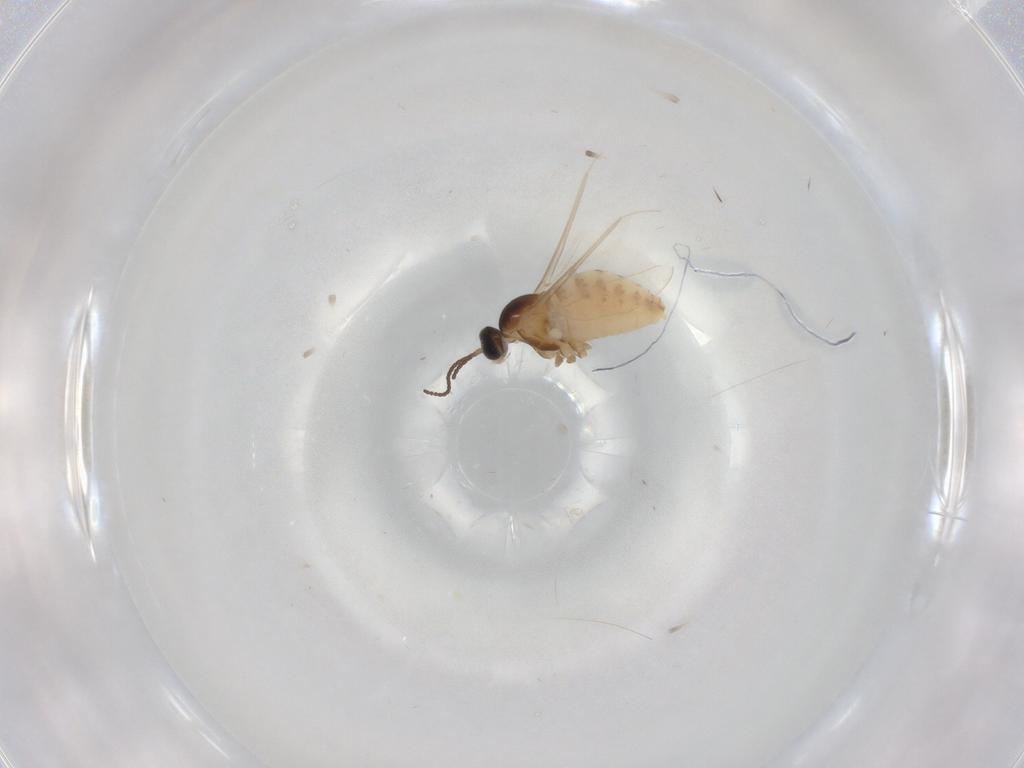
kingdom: Animalia
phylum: Arthropoda
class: Insecta
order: Diptera
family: Cecidomyiidae
